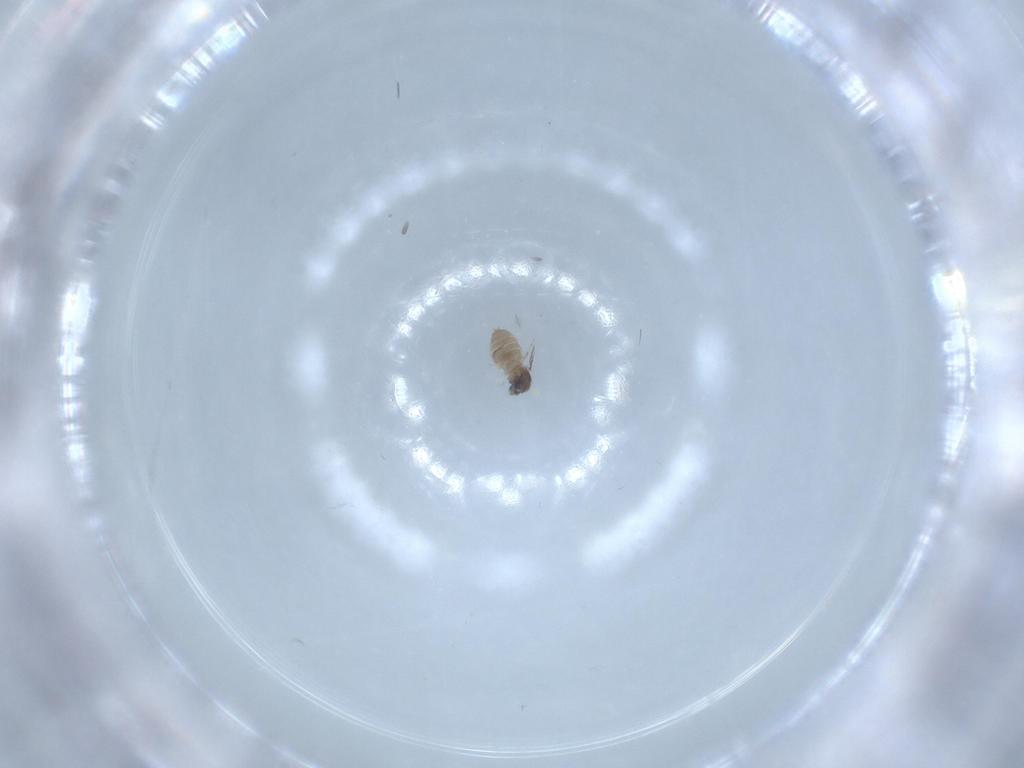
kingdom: Animalia
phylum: Arthropoda
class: Insecta
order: Diptera
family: Cecidomyiidae
